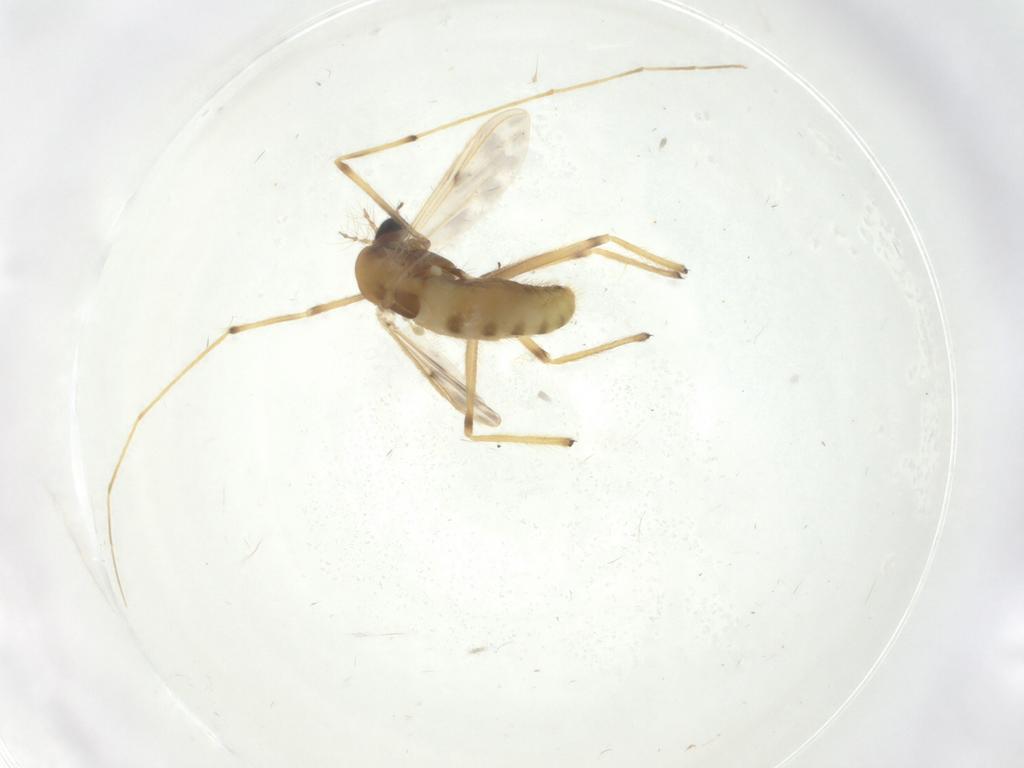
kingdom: Animalia
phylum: Arthropoda
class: Insecta
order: Diptera
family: Chironomidae
